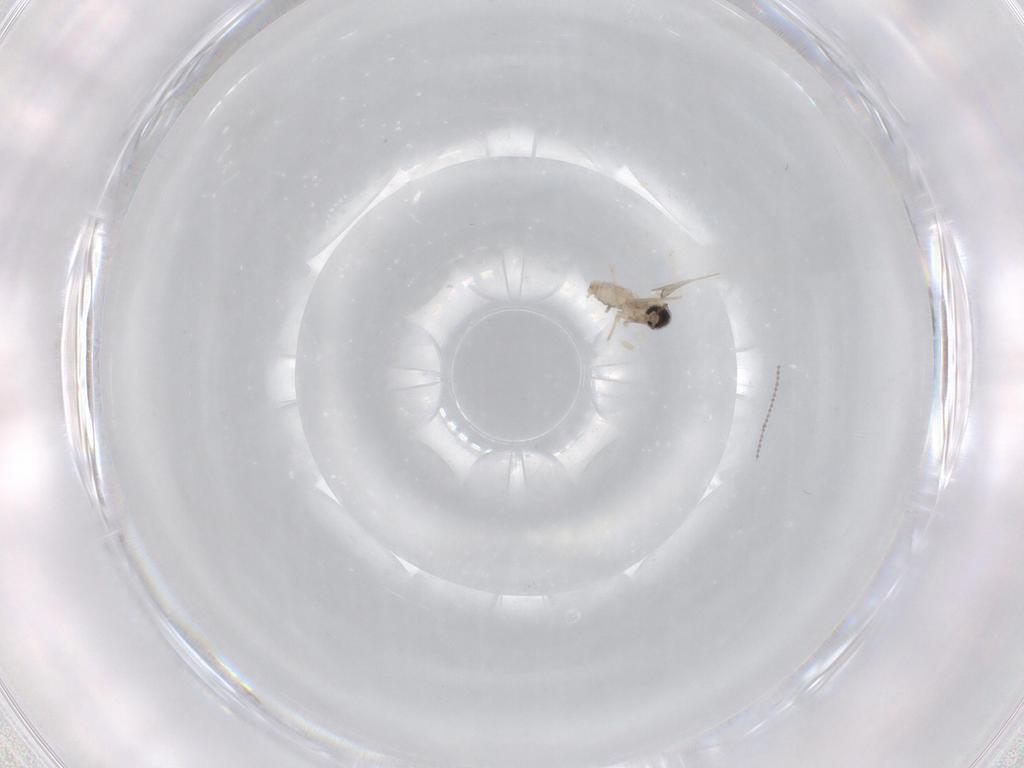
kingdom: Animalia
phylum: Arthropoda
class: Insecta
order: Diptera
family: Cecidomyiidae
